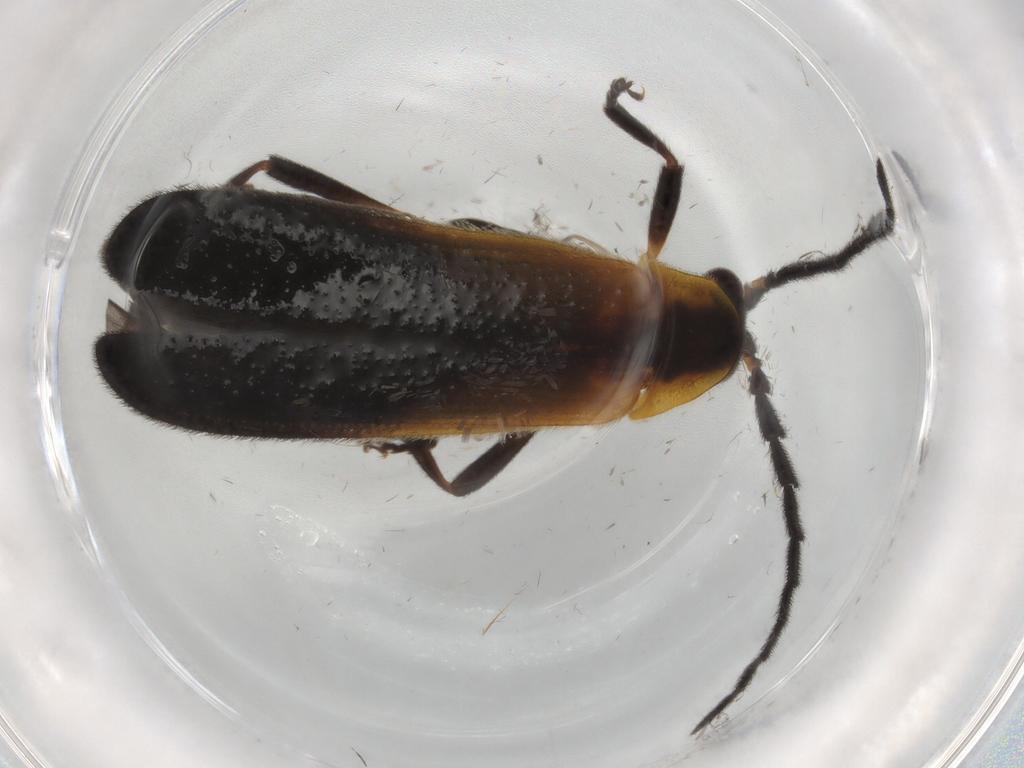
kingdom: Animalia
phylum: Arthropoda
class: Insecta
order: Coleoptera
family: Lycidae
